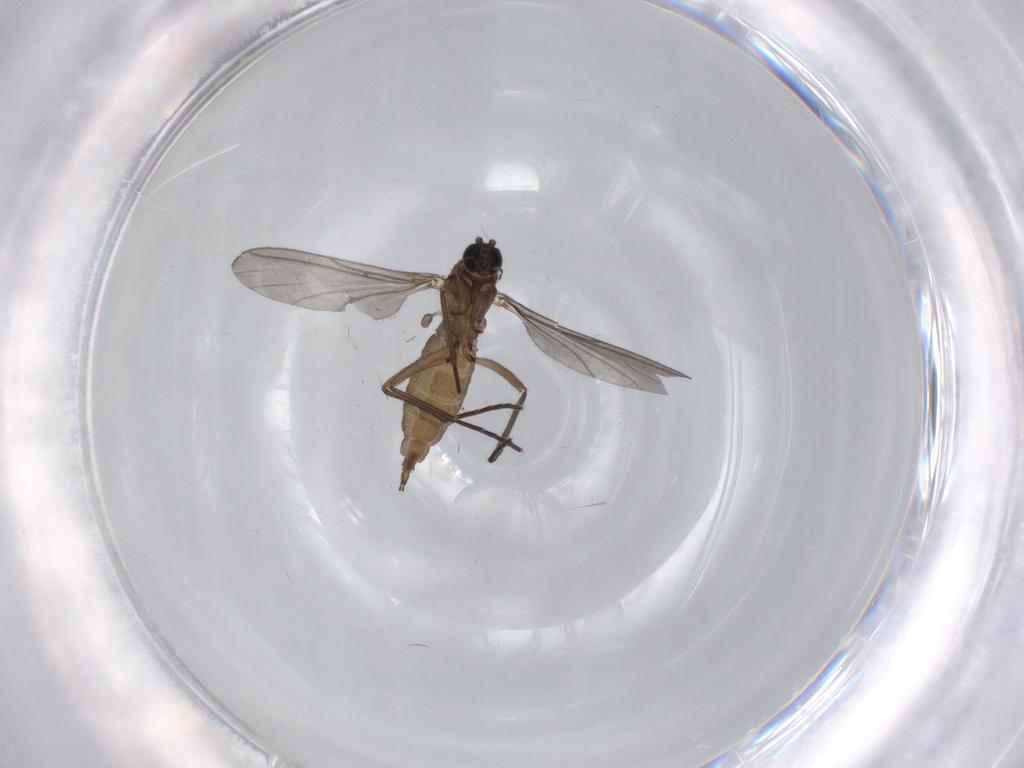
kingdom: Animalia
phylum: Arthropoda
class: Insecta
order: Diptera
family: Sciaridae
